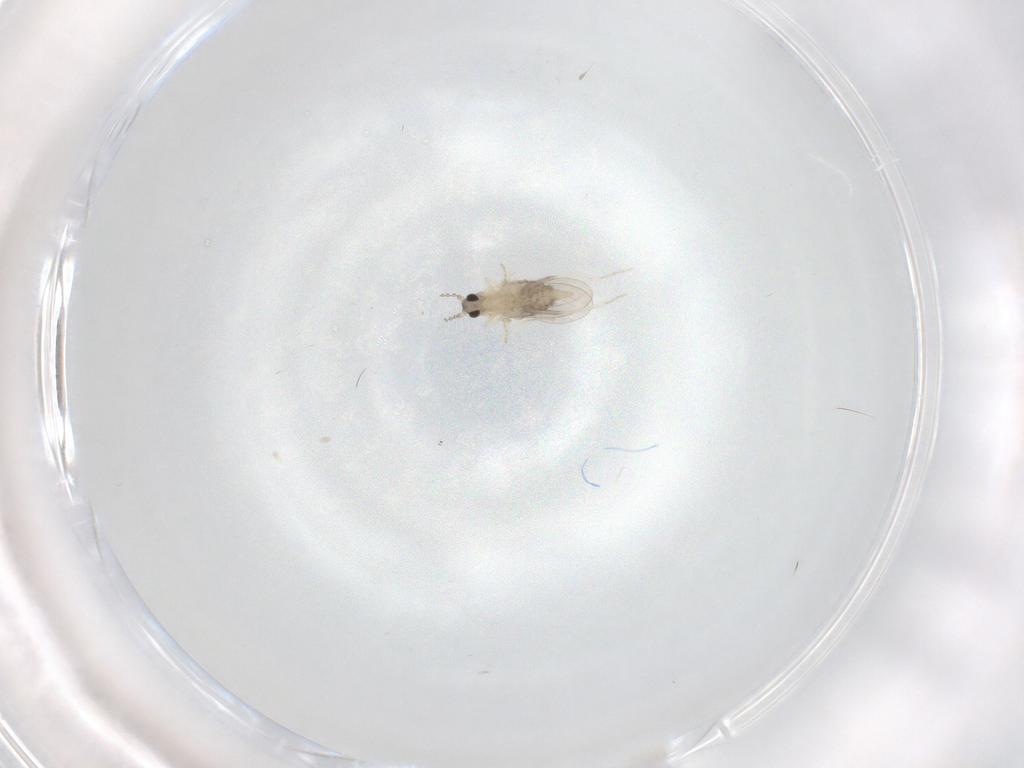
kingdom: Animalia
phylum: Arthropoda
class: Insecta
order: Diptera
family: Cecidomyiidae
